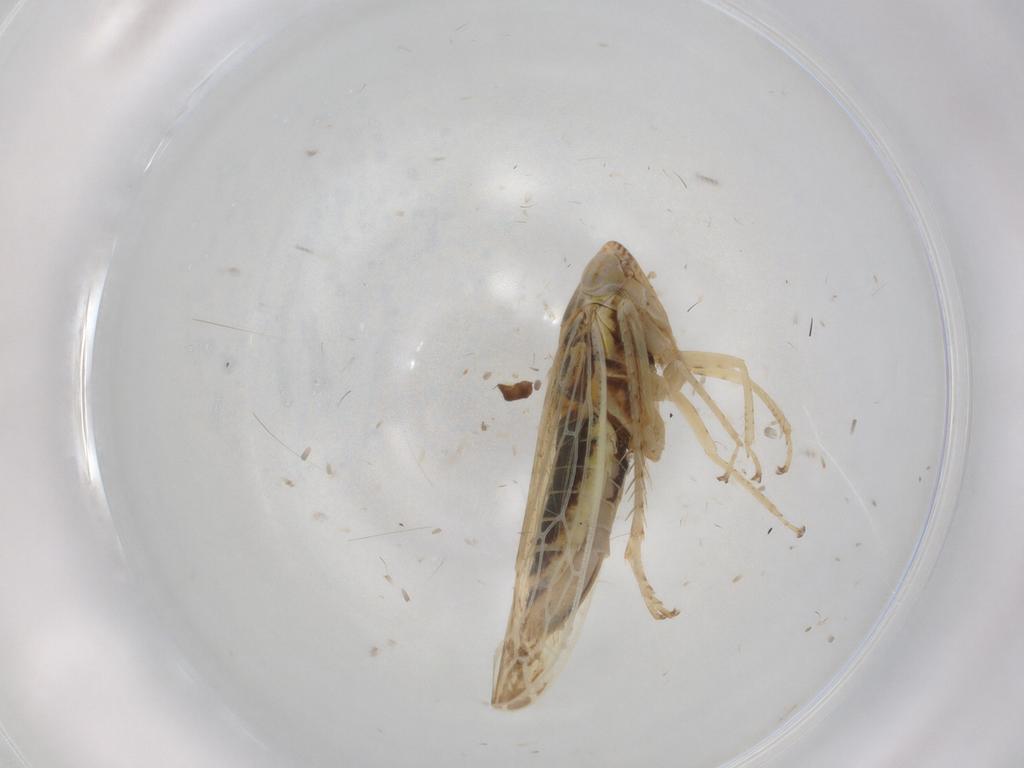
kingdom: Animalia
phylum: Arthropoda
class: Insecta
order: Hemiptera
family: Cicadellidae
